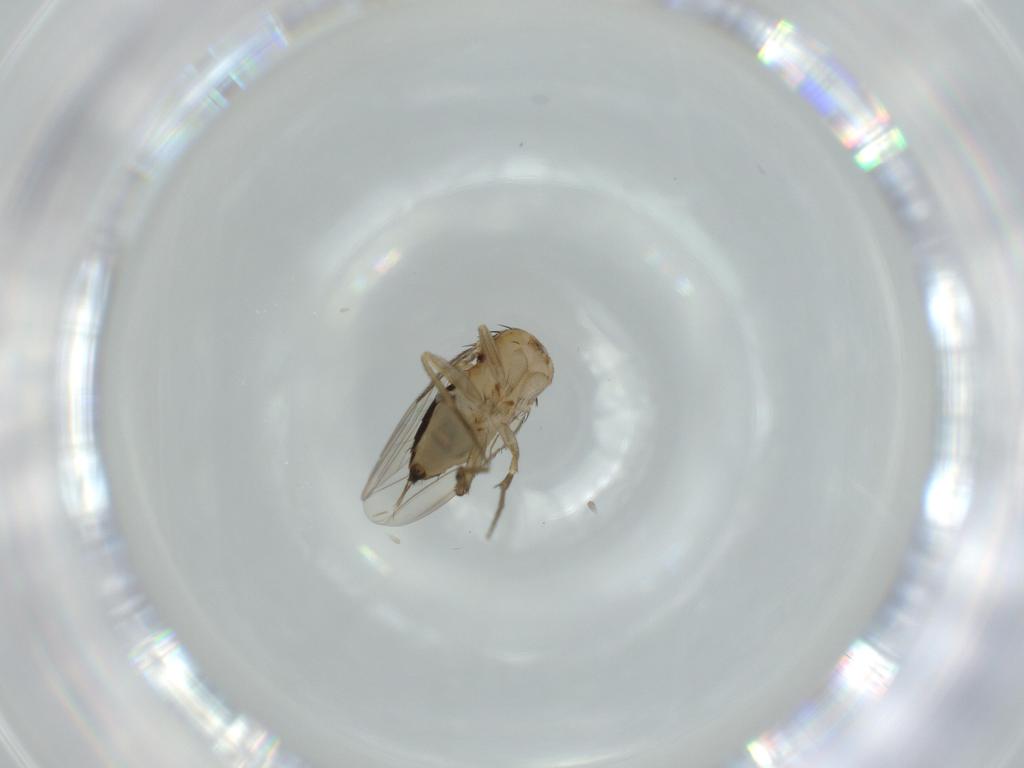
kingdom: Animalia
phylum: Arthropoda
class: Insecta
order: Diptera
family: Phoridae
